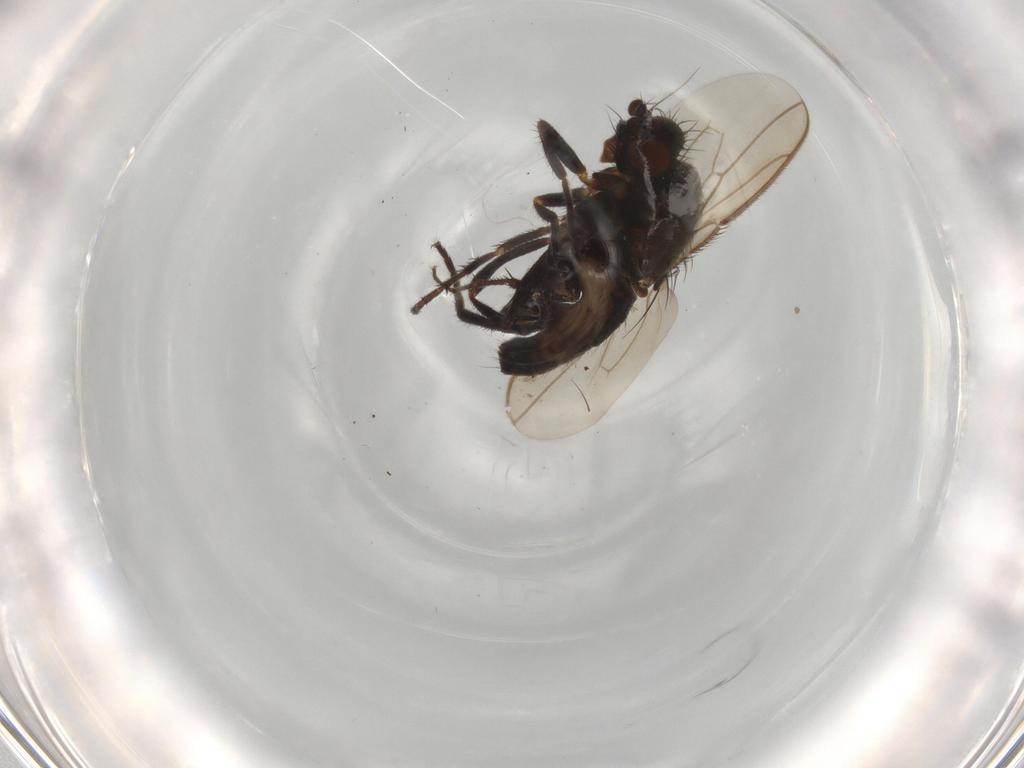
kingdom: Animalia
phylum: Arthropoda
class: Insecta
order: Diptera
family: Sphaeroceridae
